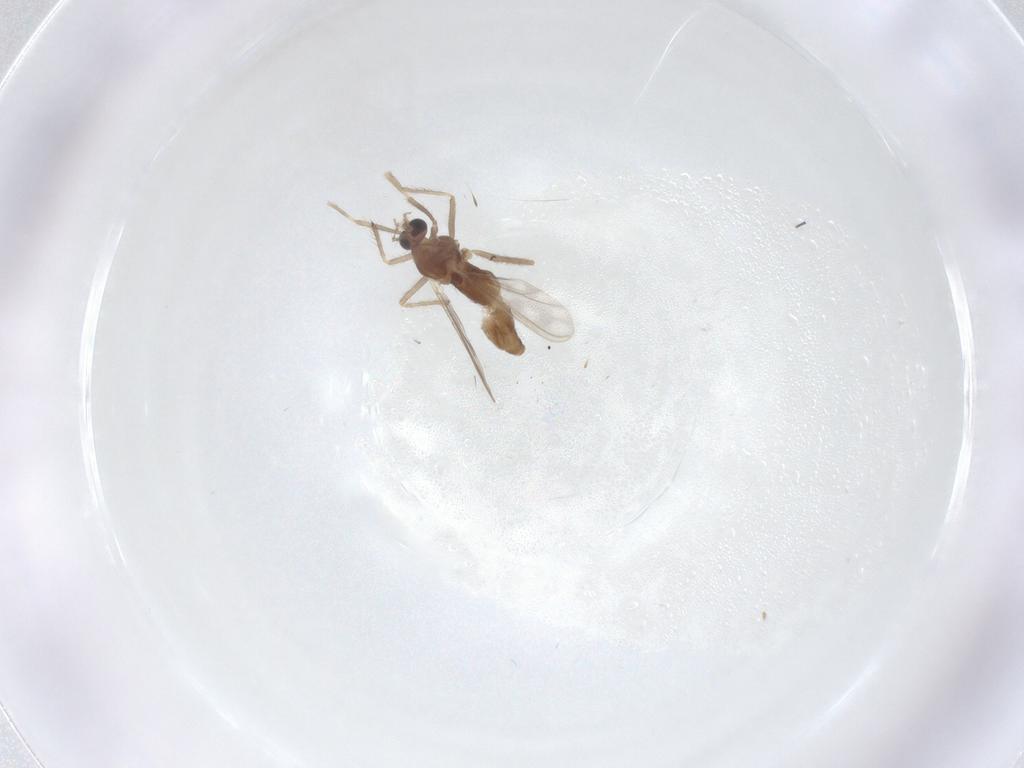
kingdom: Animalia
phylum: Arthropoda
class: Insecta
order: Diptera
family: Chironomidae
